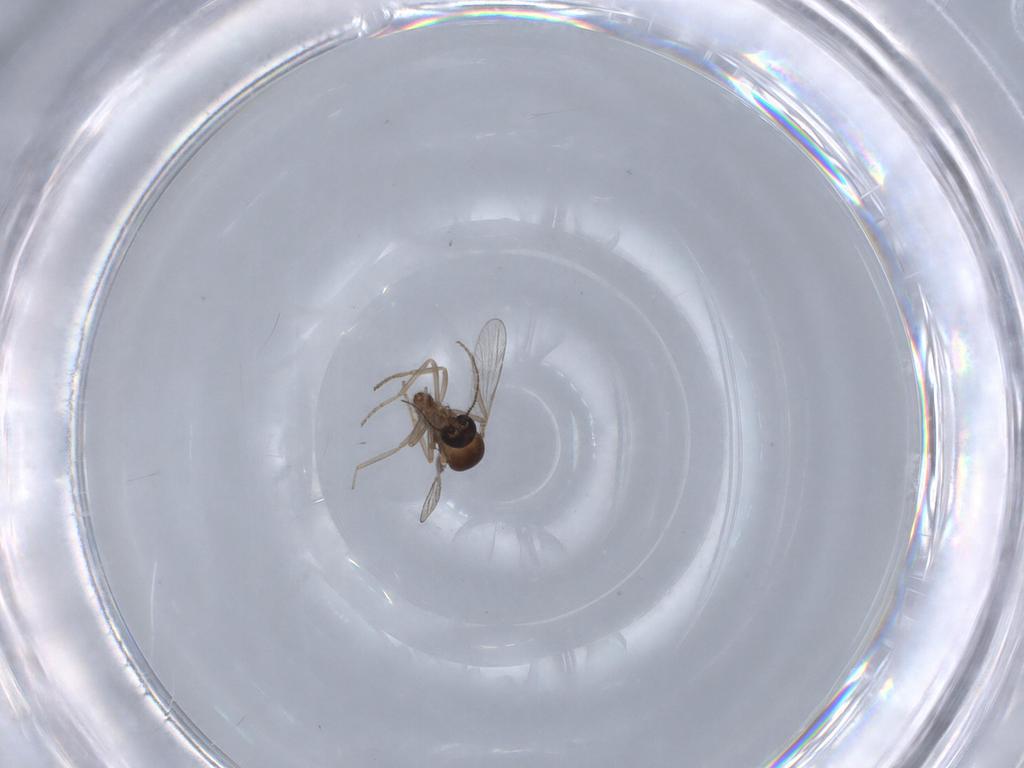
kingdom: Animalia
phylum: Arthropoda
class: Insecta
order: Diptera
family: Ceratopogonidae
